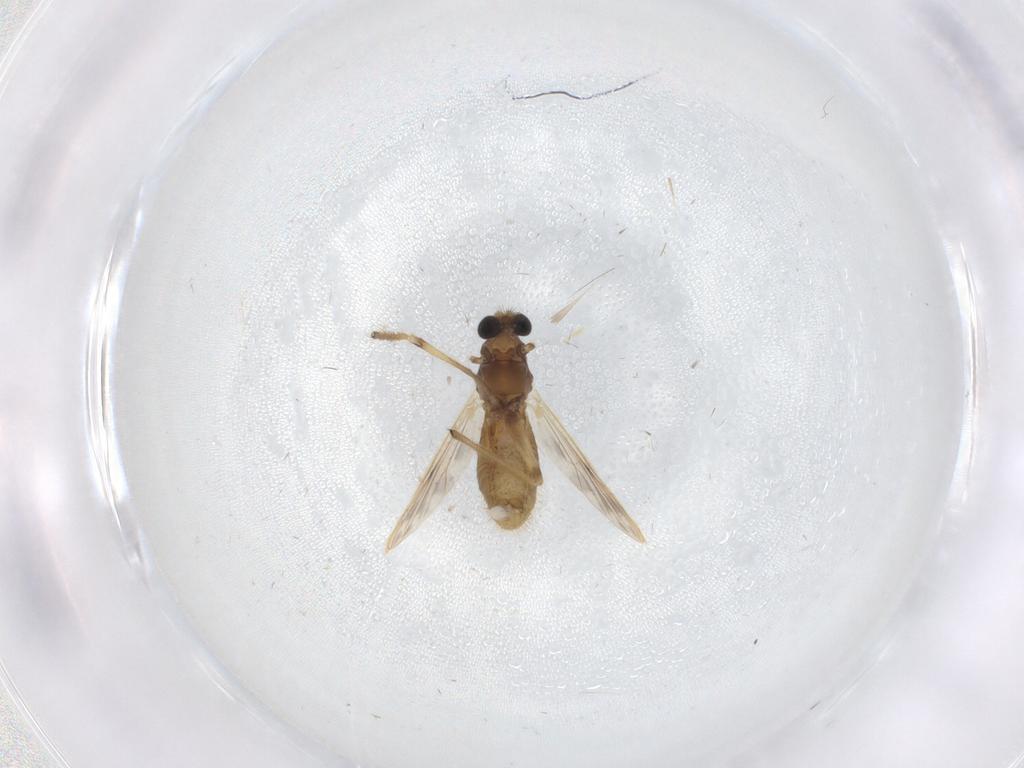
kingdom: Animalia
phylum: Arthropoda
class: Insecta
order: Diptera
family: Chironomidae
